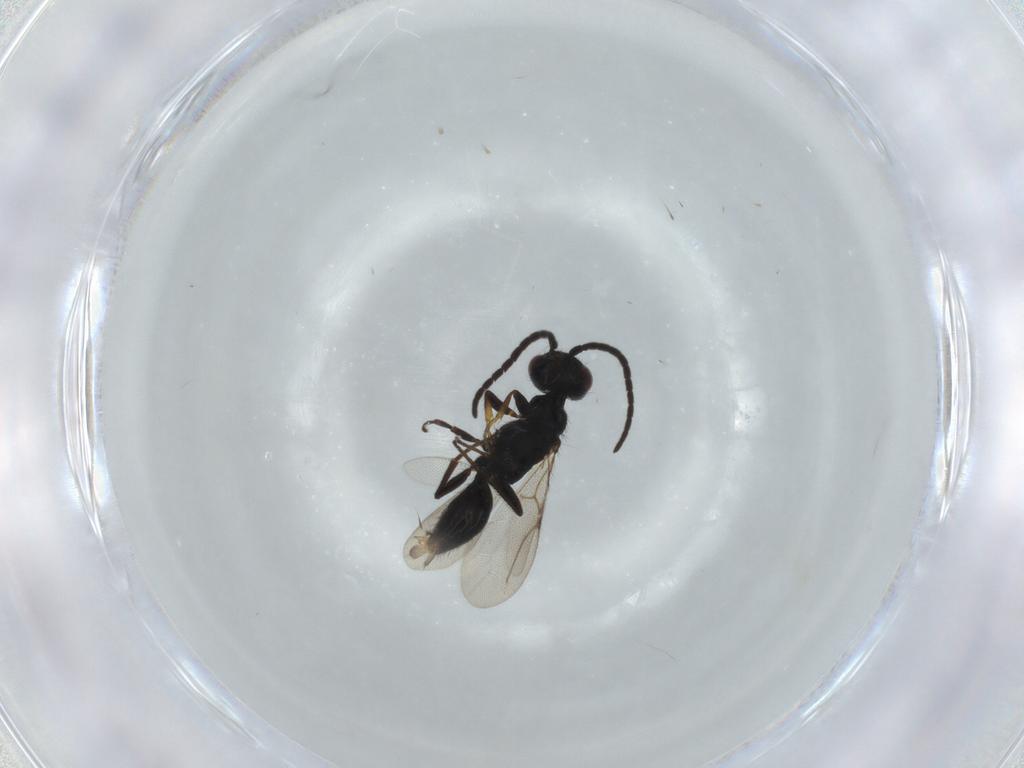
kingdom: Animalia
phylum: Arthropoda
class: Insecta
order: Hymenoptera
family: Bethylidae
